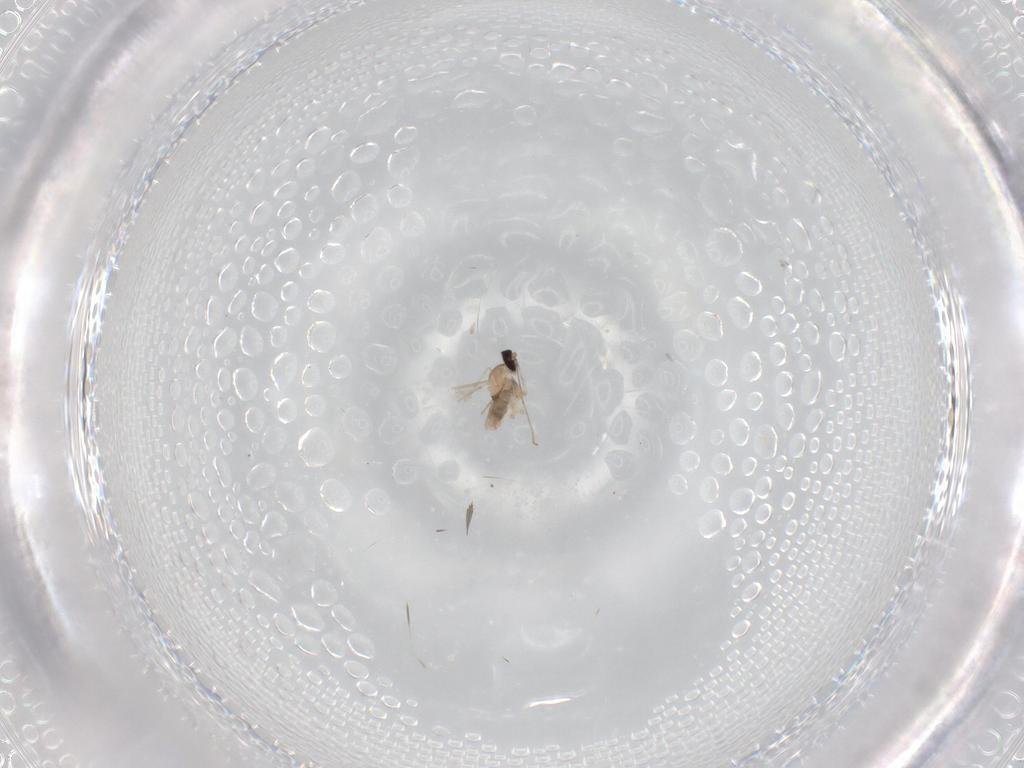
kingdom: Animalia
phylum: Arthropoda
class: Insecta
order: Diptera
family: Cecidomyiidae
